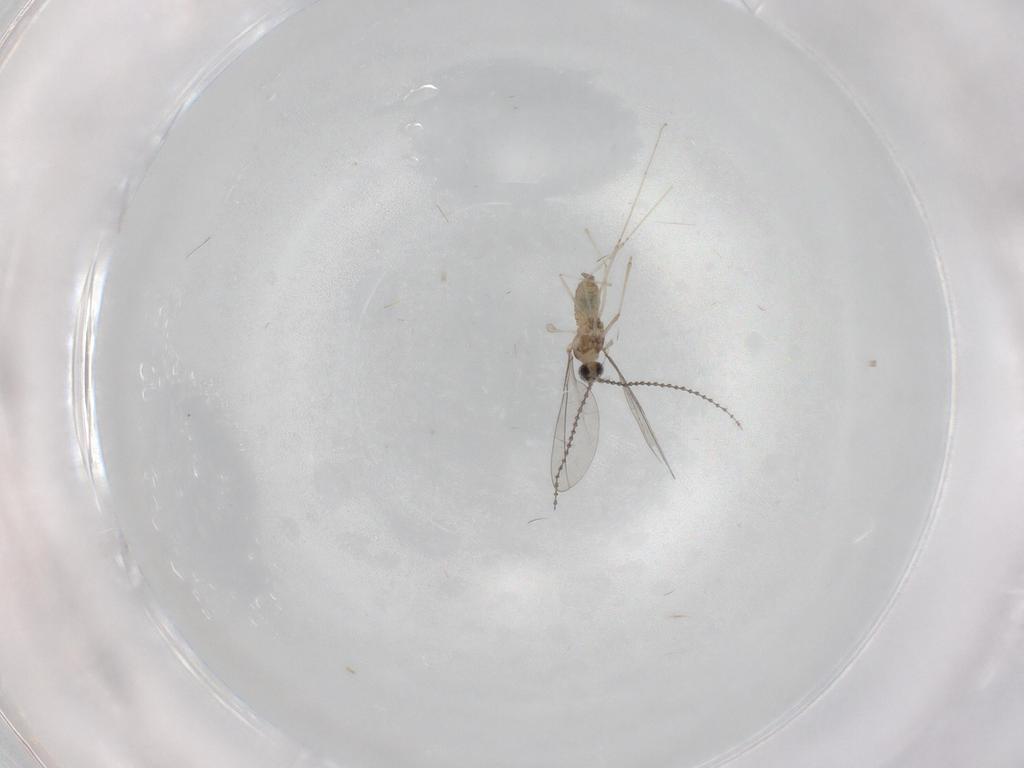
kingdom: Animalia
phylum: Arthropoda
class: Insecta
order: Diptera
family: Cecidomyiidae
